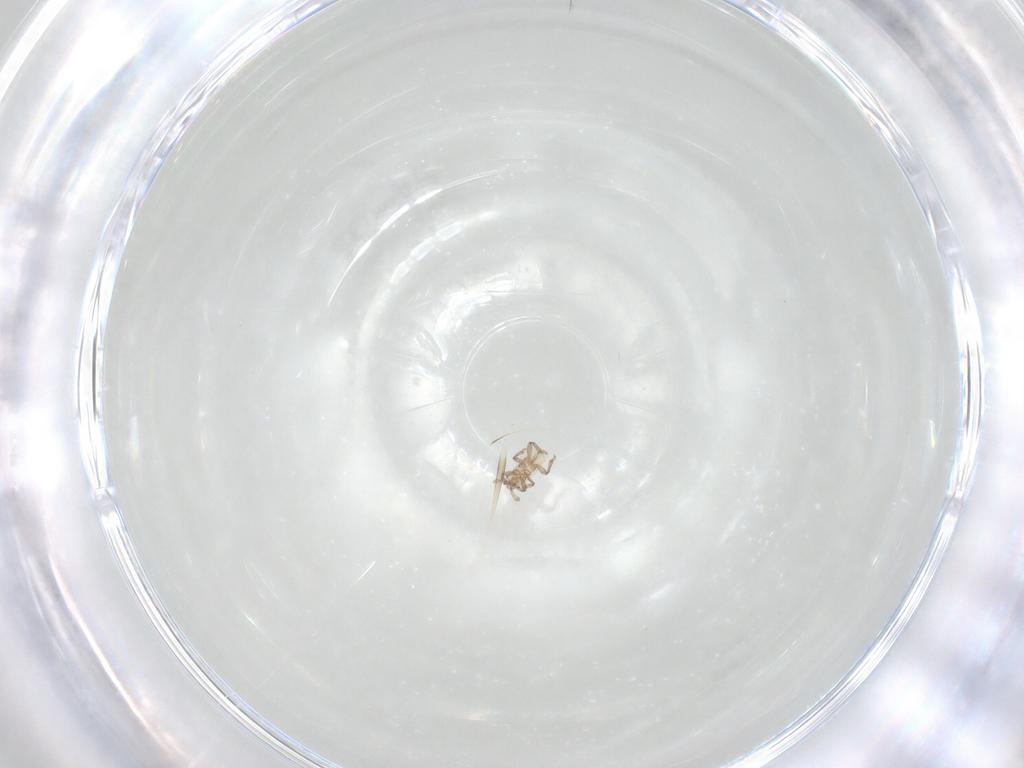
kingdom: Animalia
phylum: Arthropoda
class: Insecta
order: Hemiptera
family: Aphididae
